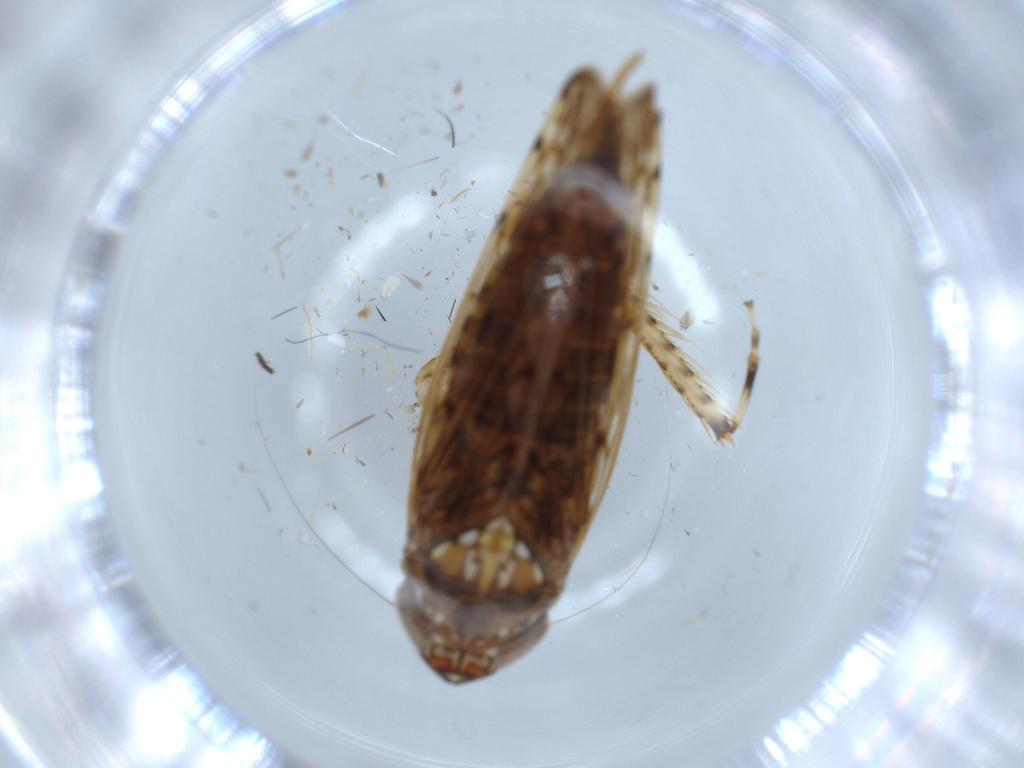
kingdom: Animalia
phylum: Arthropoda
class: Insecta
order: Hemiptera
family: Cicadellidae
